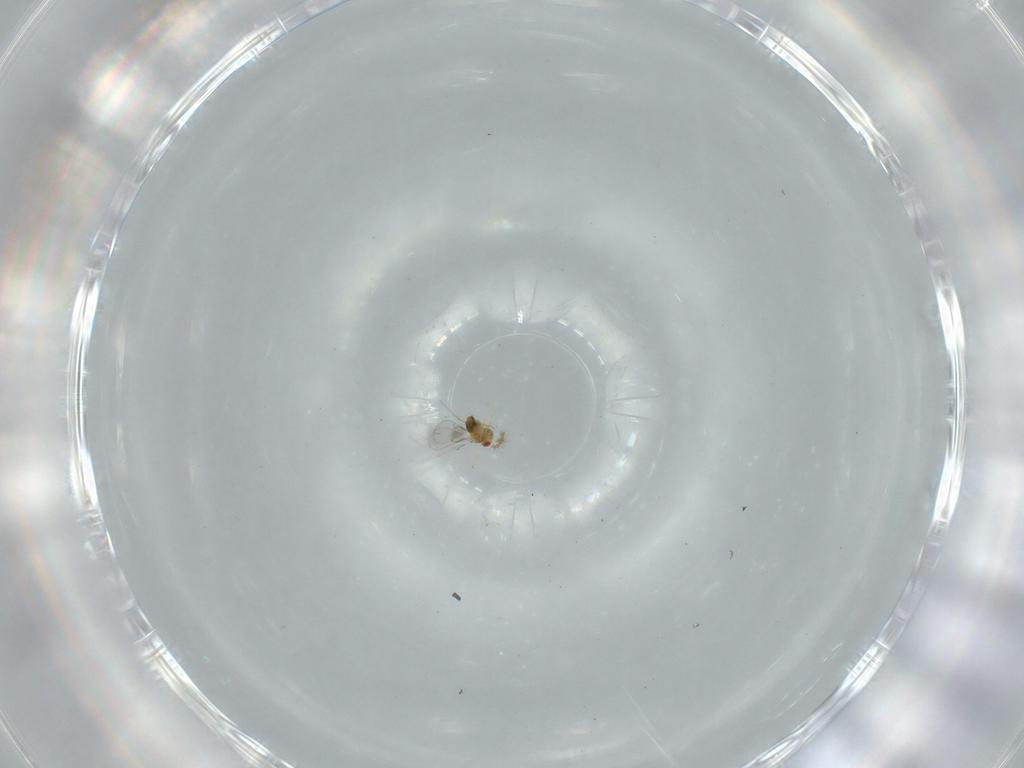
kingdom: Animalia
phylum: Arthropoda
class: Insecta
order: Hymenoptera
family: Trichogrammatidae
